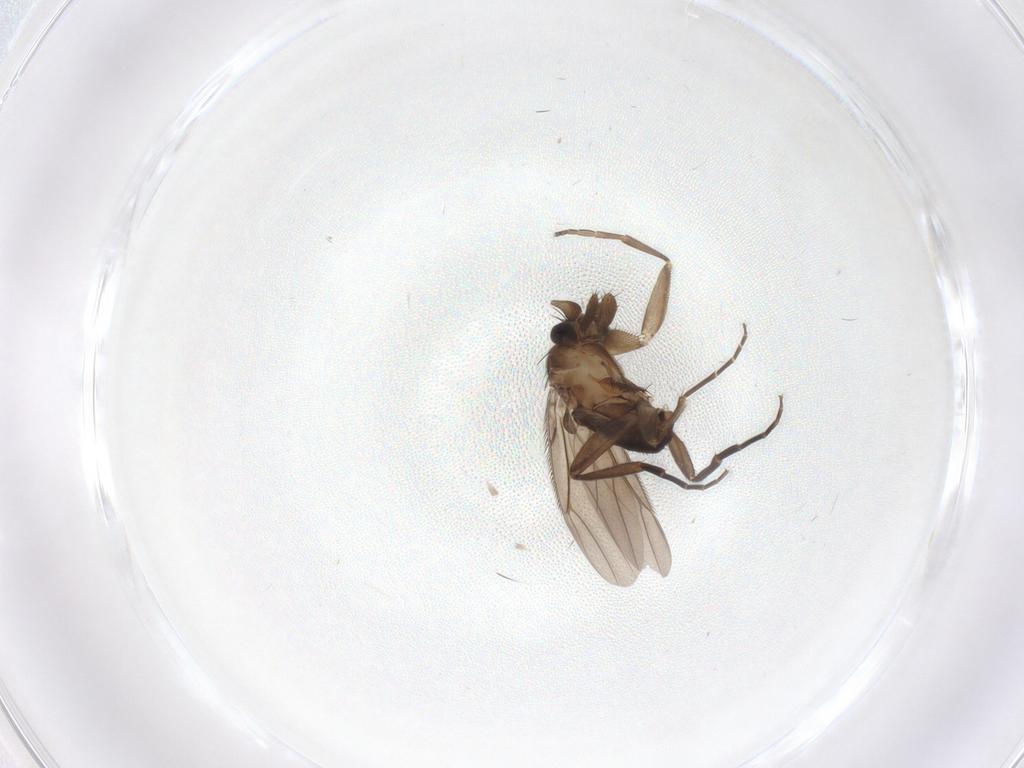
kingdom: Animalia
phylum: Arthropoda
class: Insecta
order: Diptera
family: Phoridae
